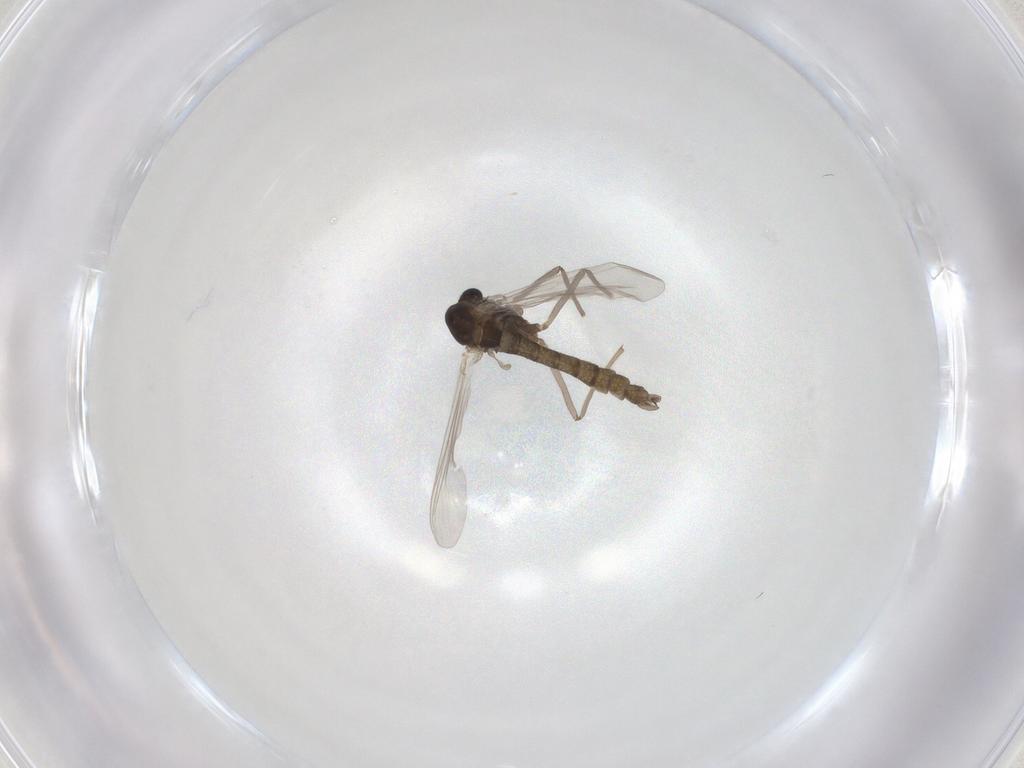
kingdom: Animalia
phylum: Arthropoda
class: Insecta
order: Diptera
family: Chironomidae
